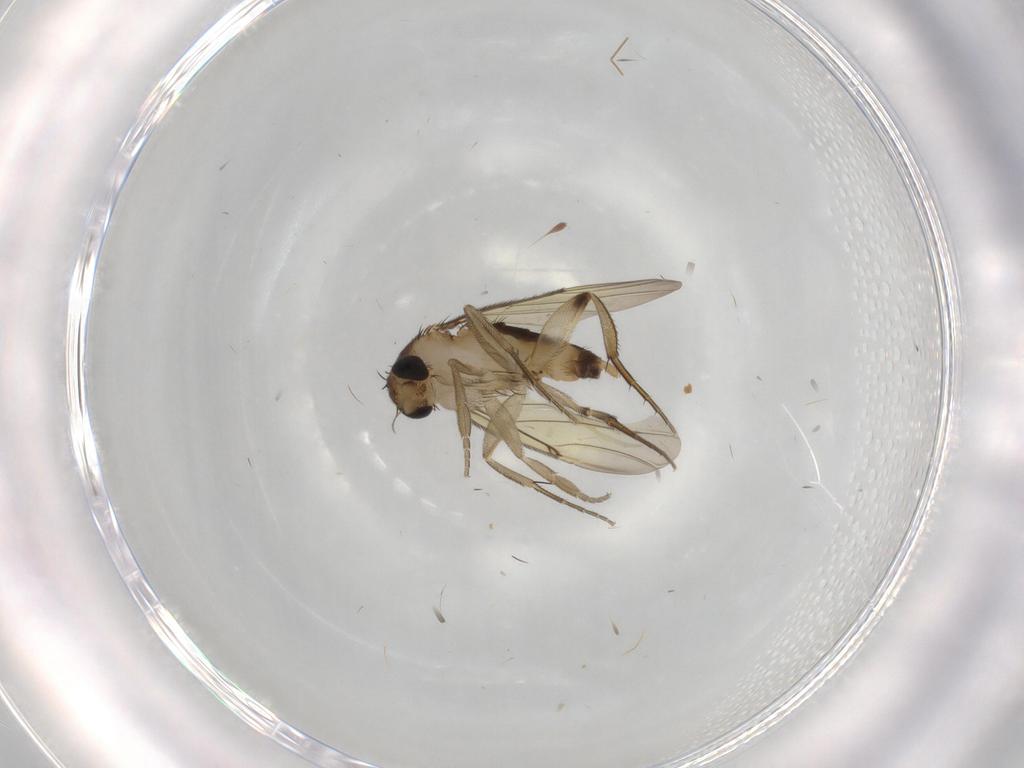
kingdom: Animalia
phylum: Arthropoda
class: Insecta
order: Diptera
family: Phoridae
